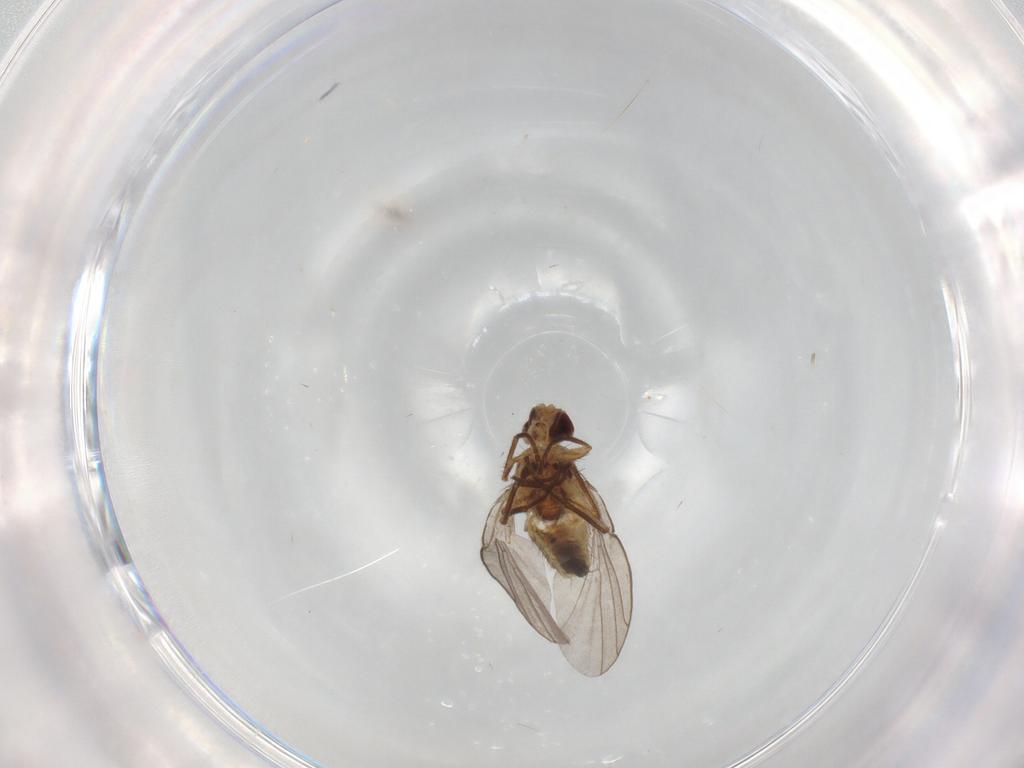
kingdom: Animalia
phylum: Arthropoda
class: Insecta
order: Diptera
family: Agromyzidae
